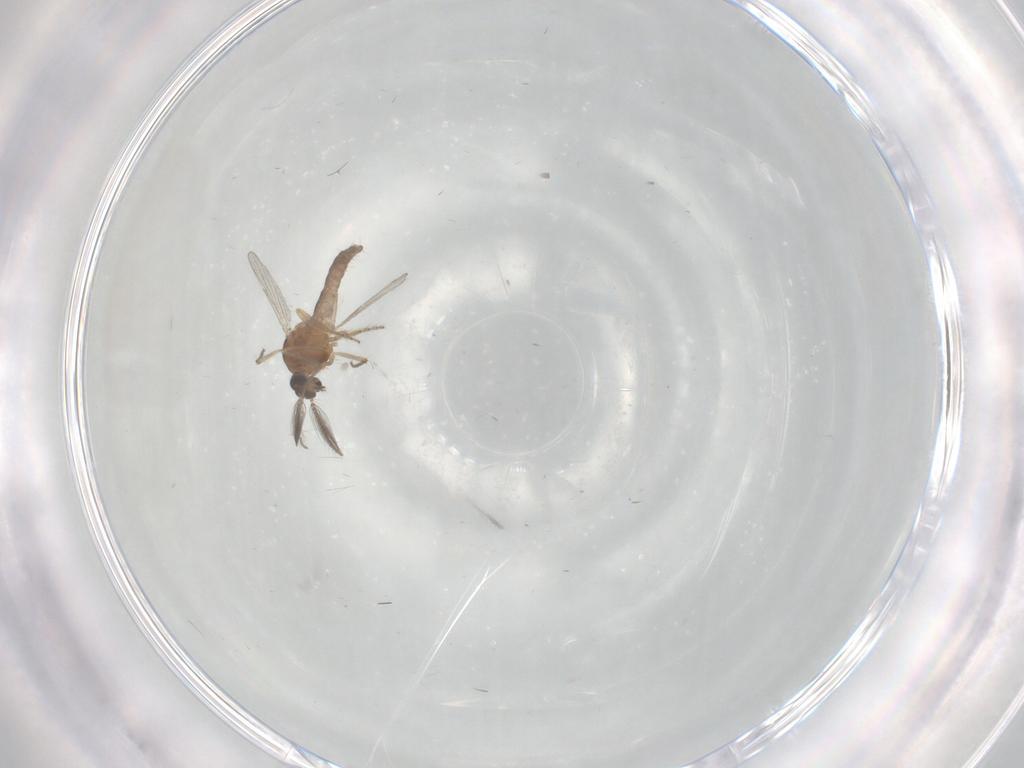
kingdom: Animalia
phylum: Arthropoda
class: Insecta
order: Diptera
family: Ceratopogonidae
